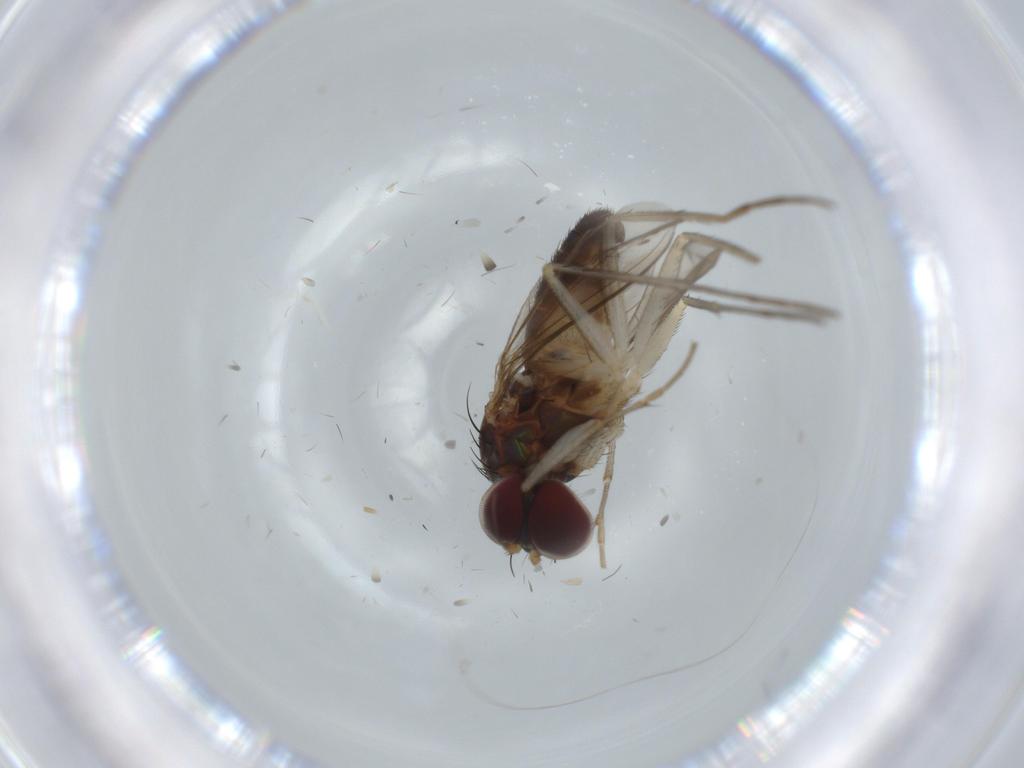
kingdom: Animalia
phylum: Arthropoda
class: Insecta
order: Diptera
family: Dolichopodidae
